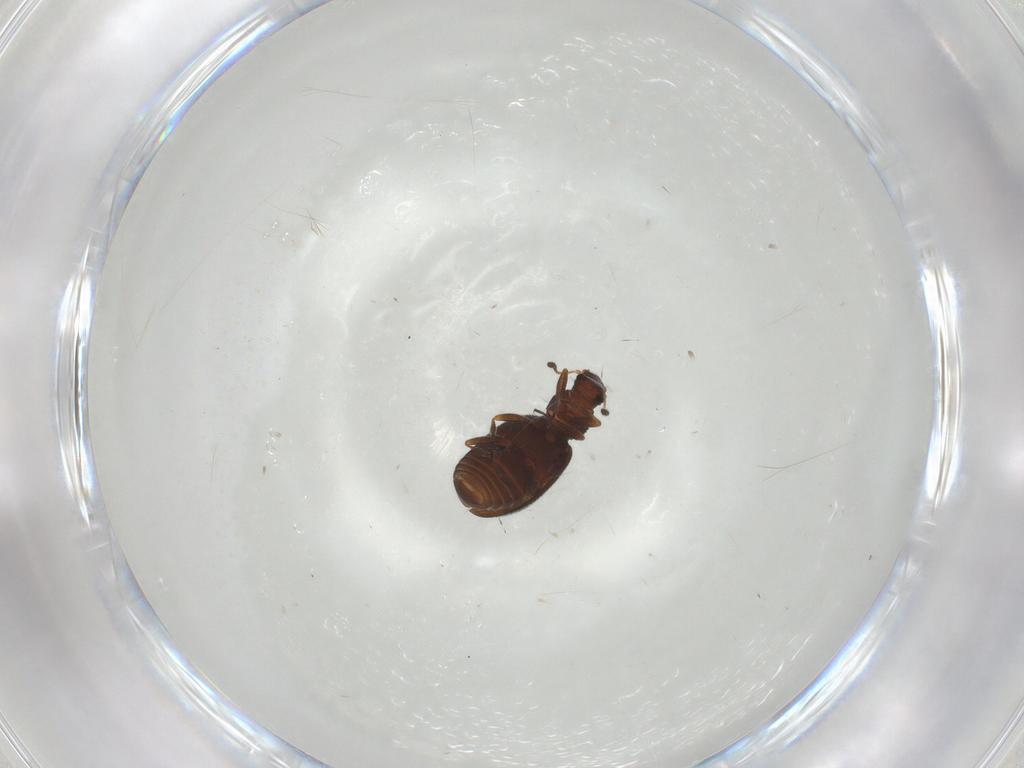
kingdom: Animalia
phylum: Arthropoda
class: Insecta
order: Coleoptera
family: Latridiidae
